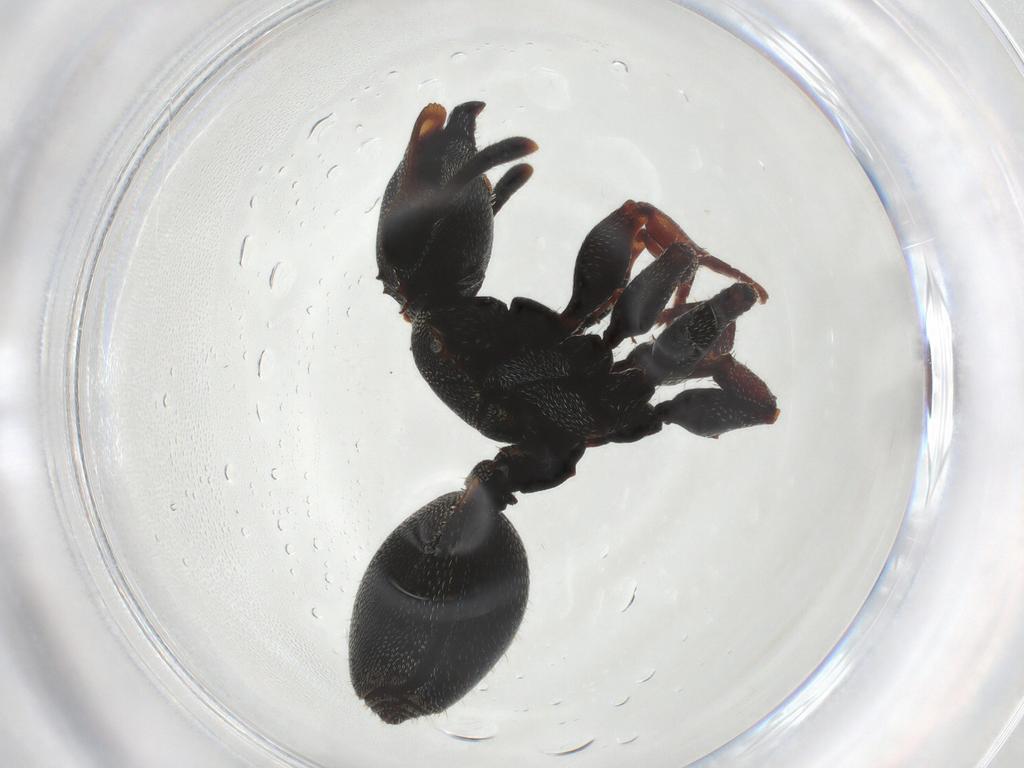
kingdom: Animalia
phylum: Arthropoda
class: Insecta
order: Hymenoptera
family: Formicidae
